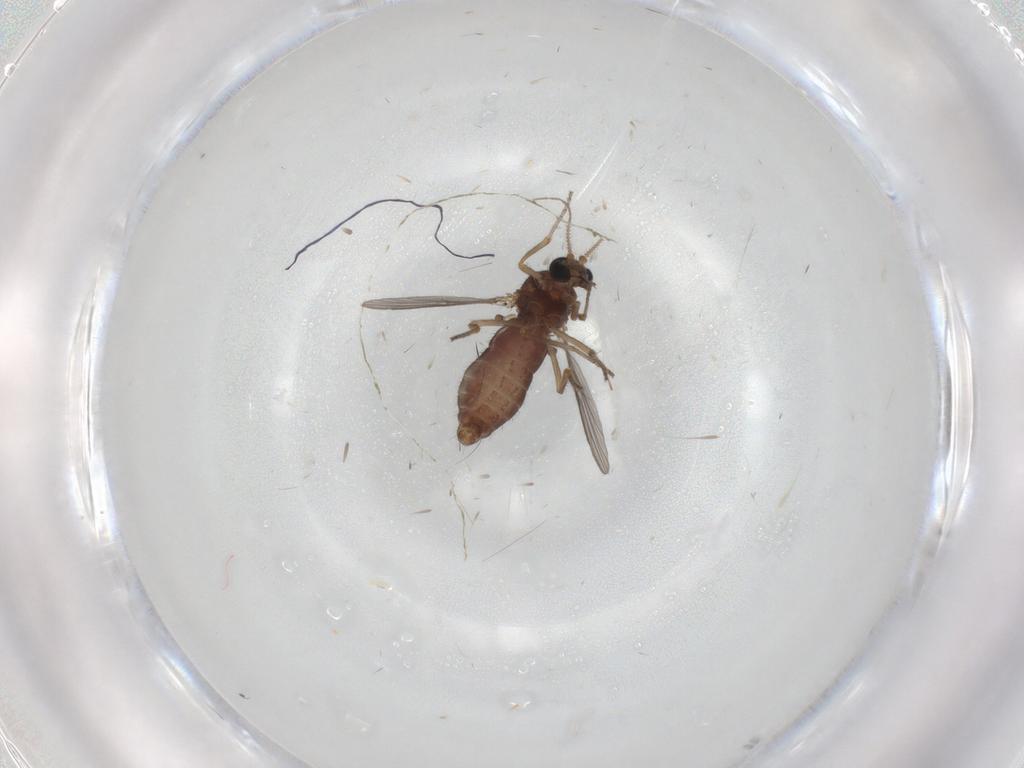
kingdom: Animalia
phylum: Arthropoda
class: Insecta
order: Diptera
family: Ceratopogonidae
